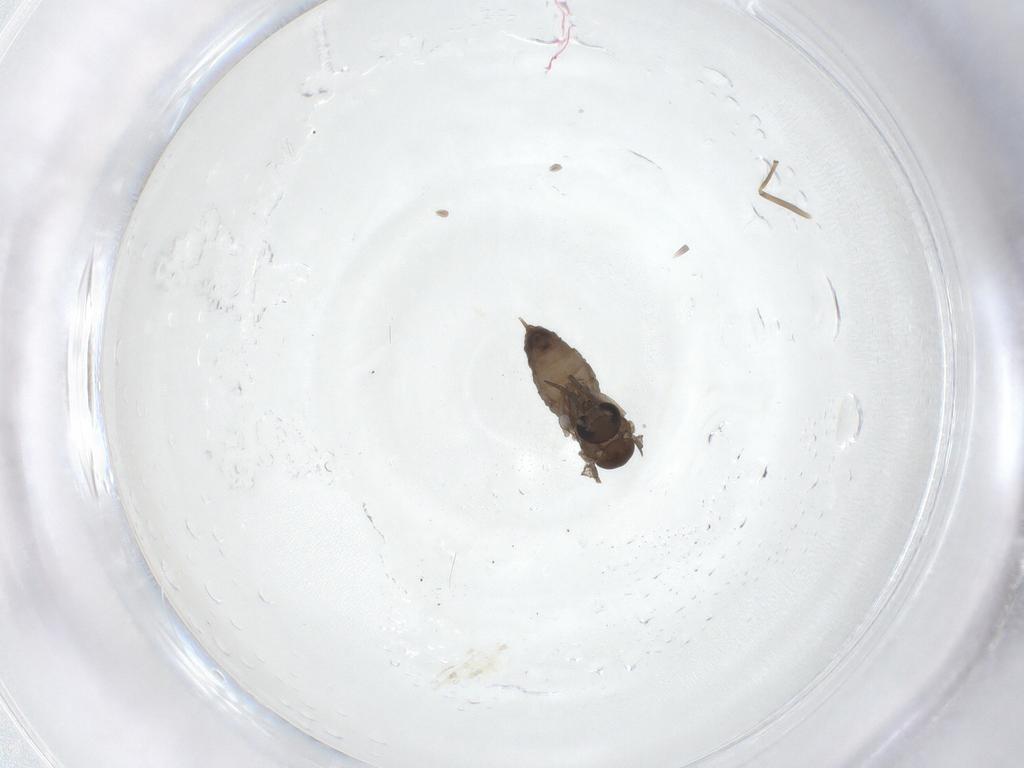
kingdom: Animalia
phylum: Arthropoda
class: Insecta
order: Diptera
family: Psychodidae
